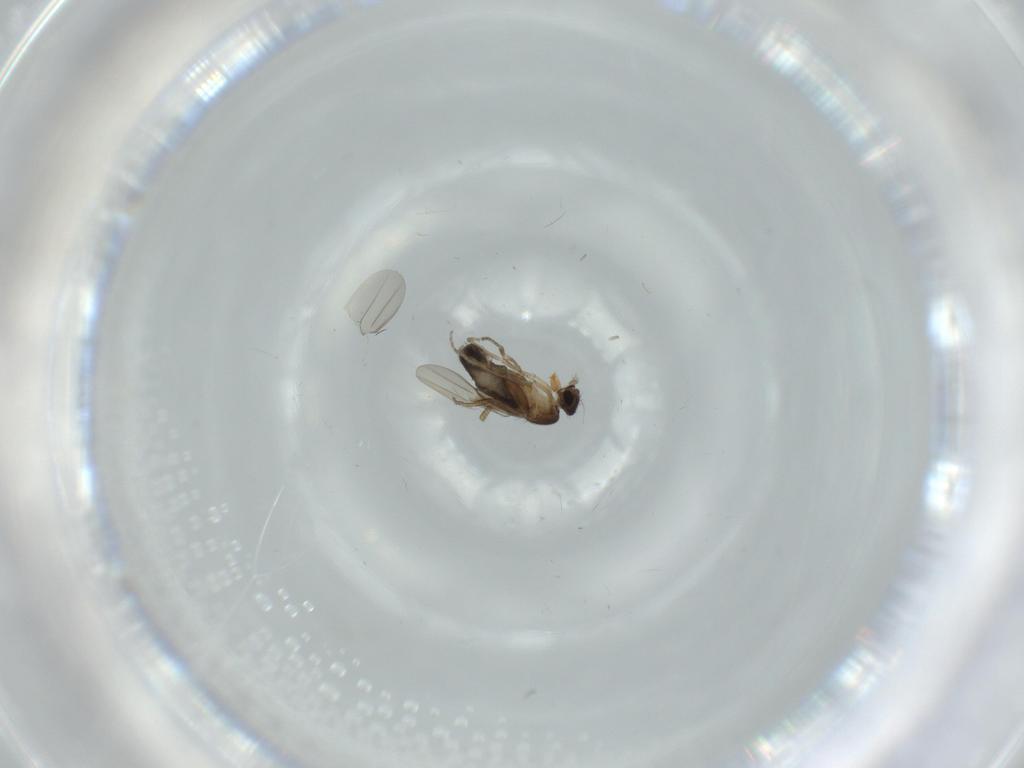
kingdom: Animalia
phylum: Arthropoda
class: Insecta
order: Diptera
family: Phoridae
